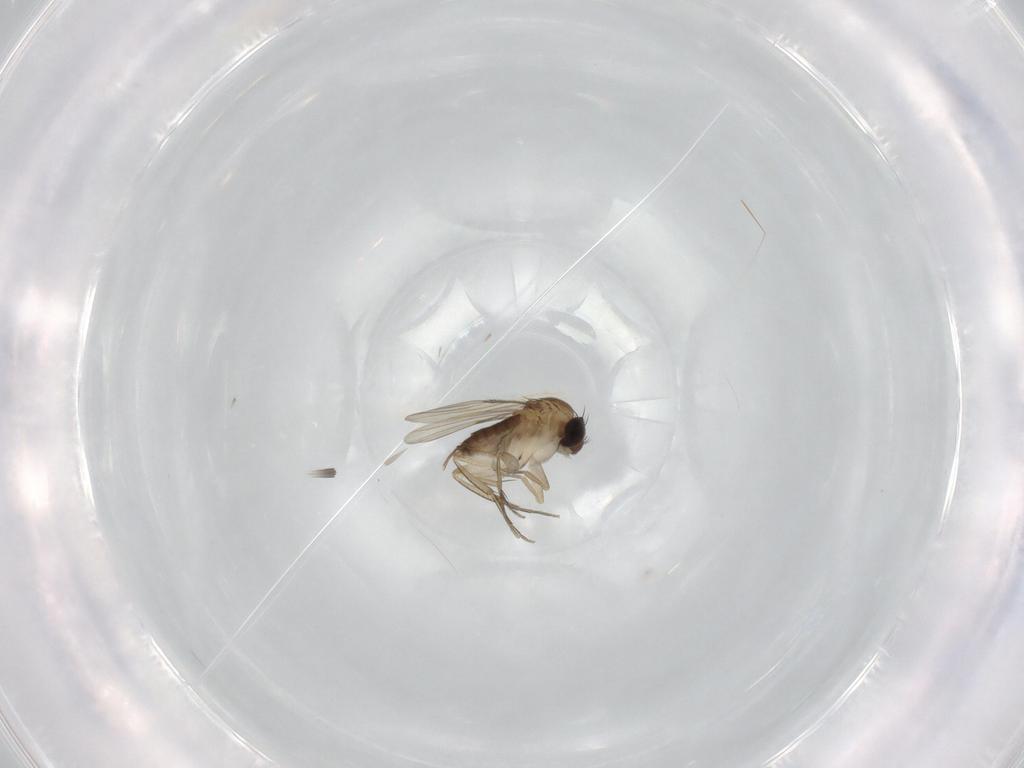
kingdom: Animalia
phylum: Arthropoda
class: Insecta
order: Diptera
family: Phoridae
